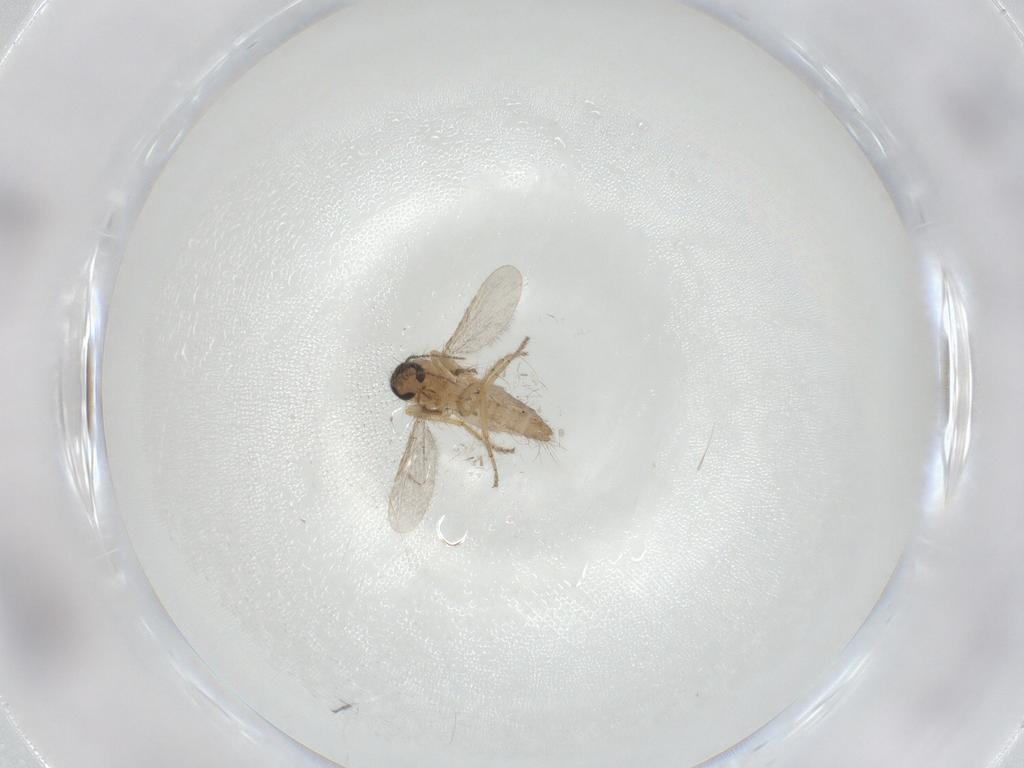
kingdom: Animalia
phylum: Arthropoda
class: Insecta
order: Diptera
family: Ceratopogonidae
